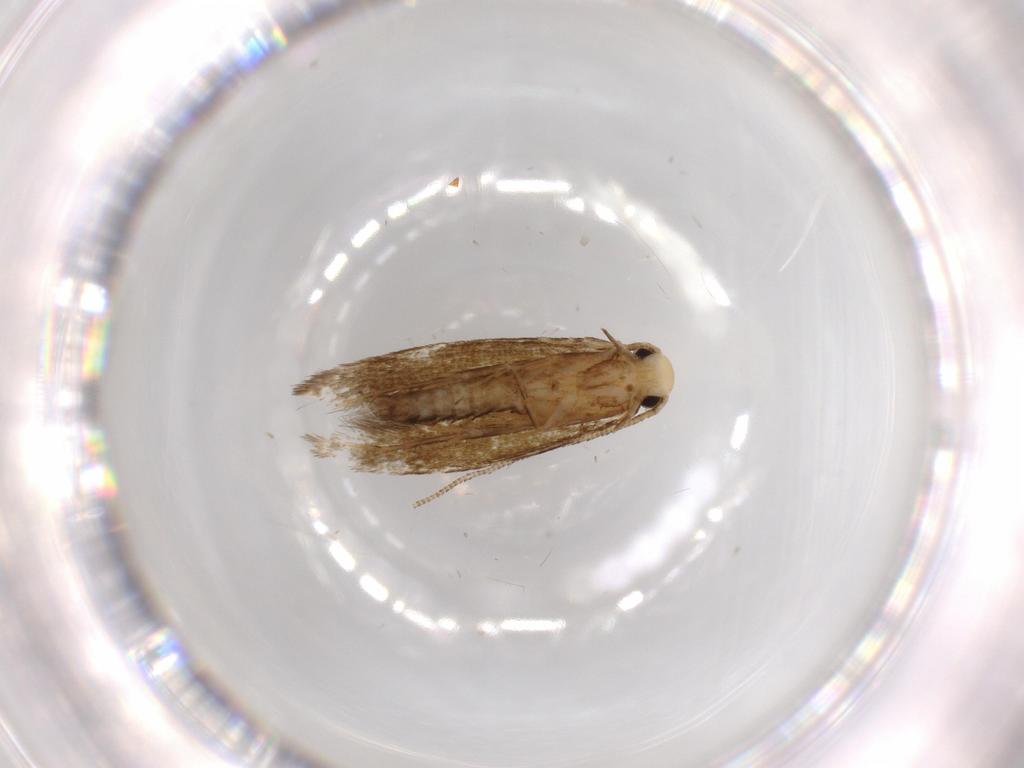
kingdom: Animalia
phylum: Arthropoda
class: Insecta
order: Lepidoptera
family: Tineidae
